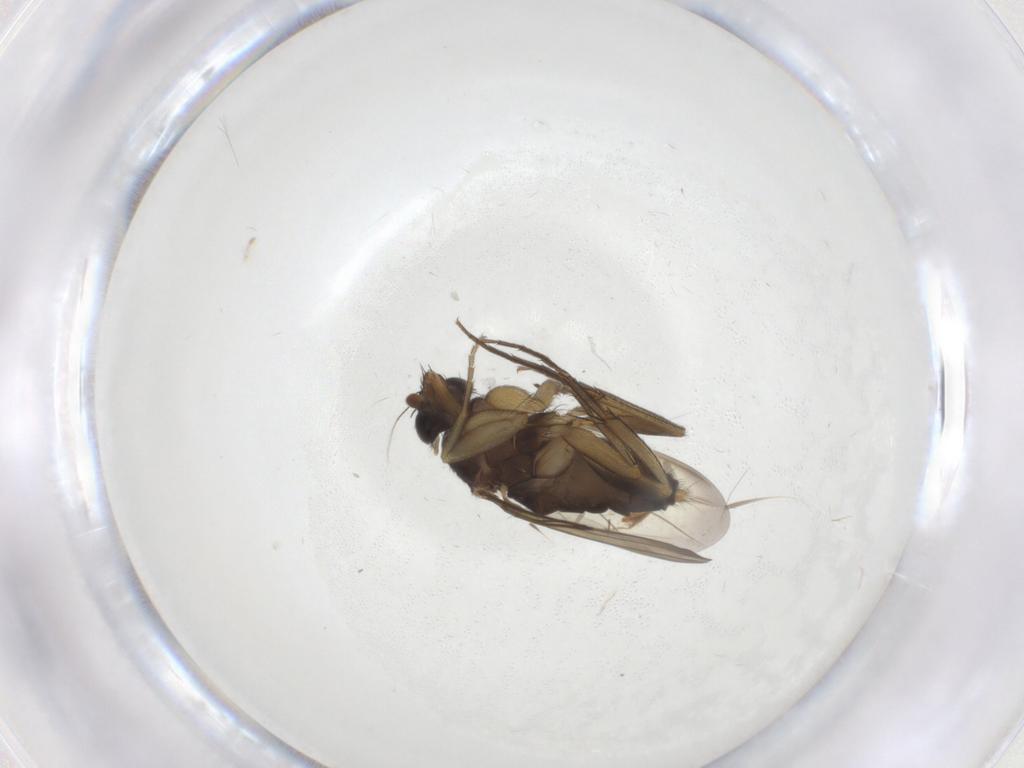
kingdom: Animalia
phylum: Arthropoda
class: Insecta
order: Diptera
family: Phoridae
